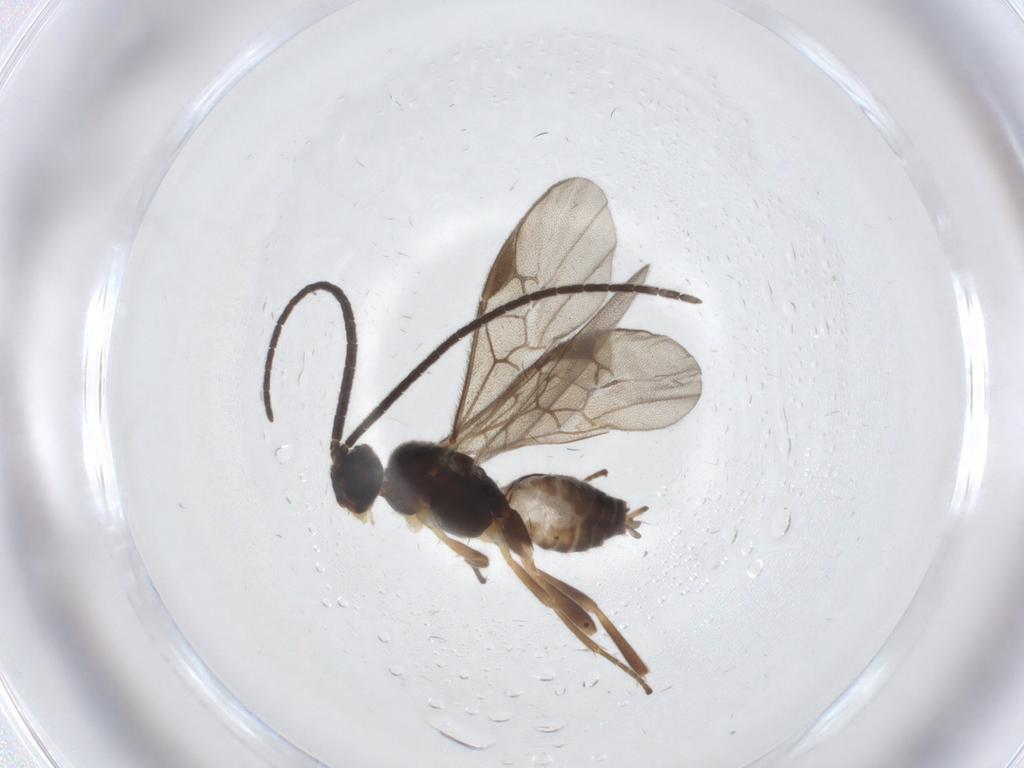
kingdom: Animalia
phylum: Arthropoda
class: Insecta
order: Hymenoptera
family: Braconidae
